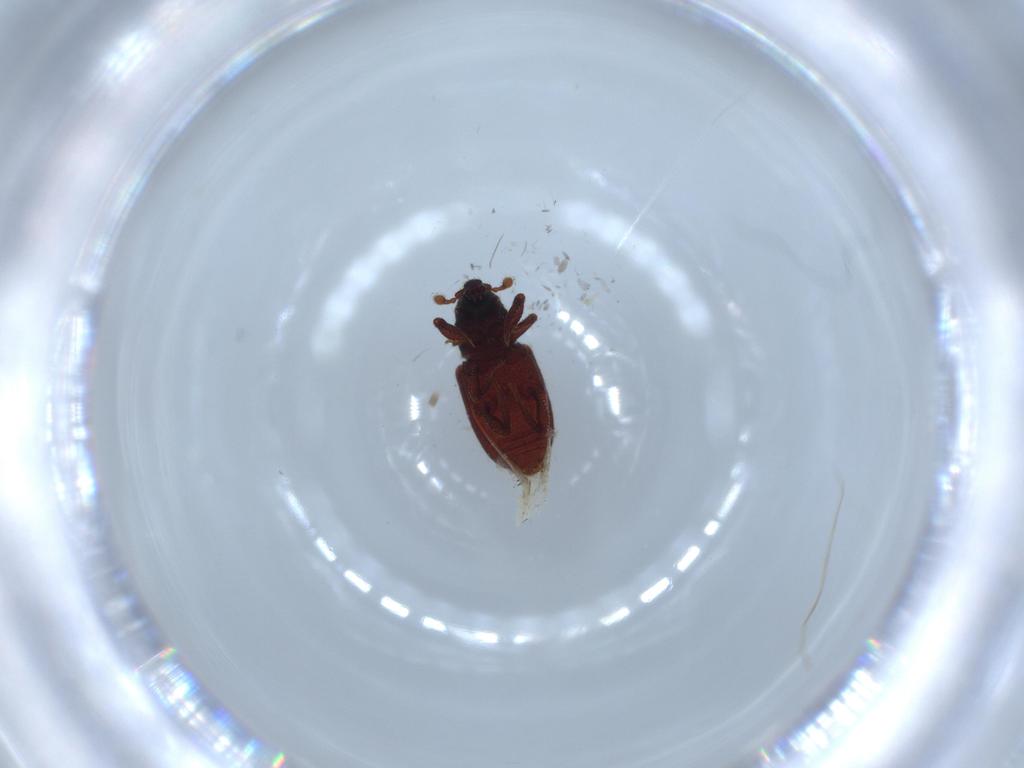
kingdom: Animalia
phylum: Arthropoda
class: Insecta
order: Coleoptera
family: Curculionidae
